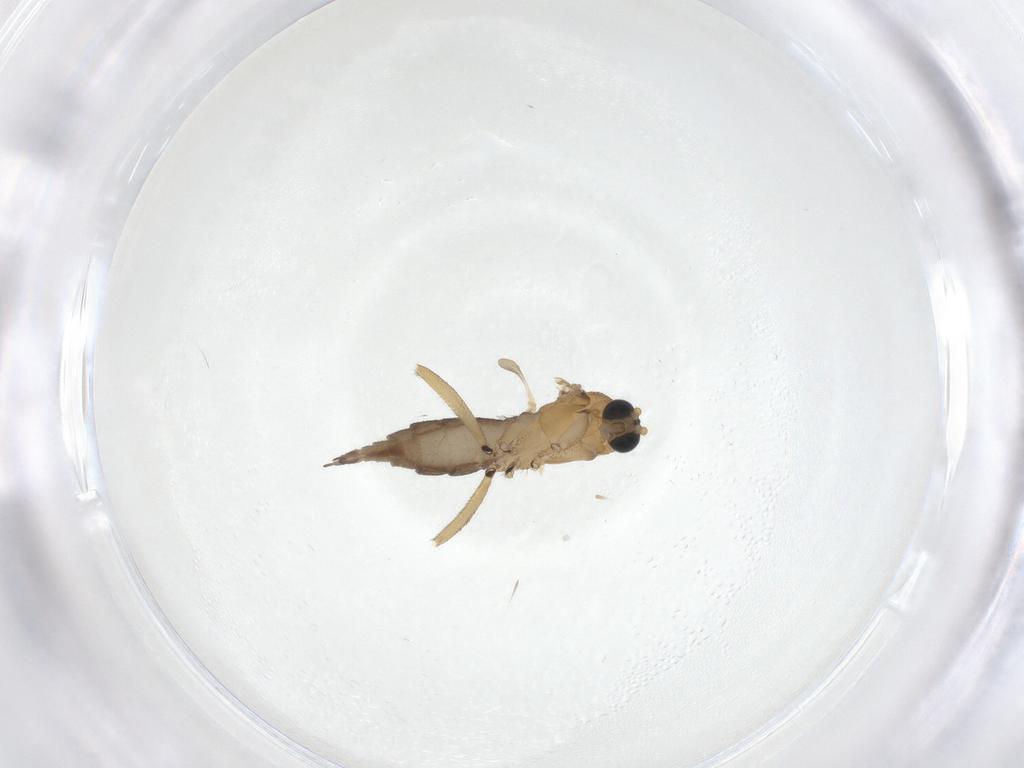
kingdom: Animalia
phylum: Arthropoda
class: Insecta
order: Diptera
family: Sciaridae
